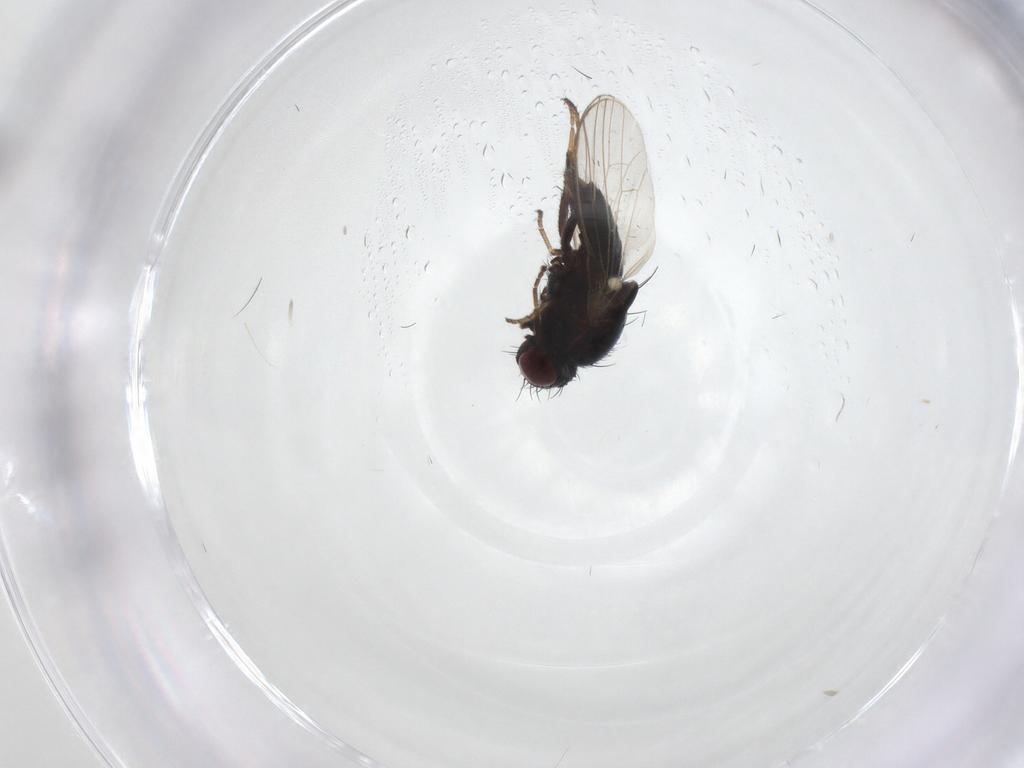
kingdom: Animalia
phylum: Arthropoda
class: Insecta
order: Diptera
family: Carnidae
